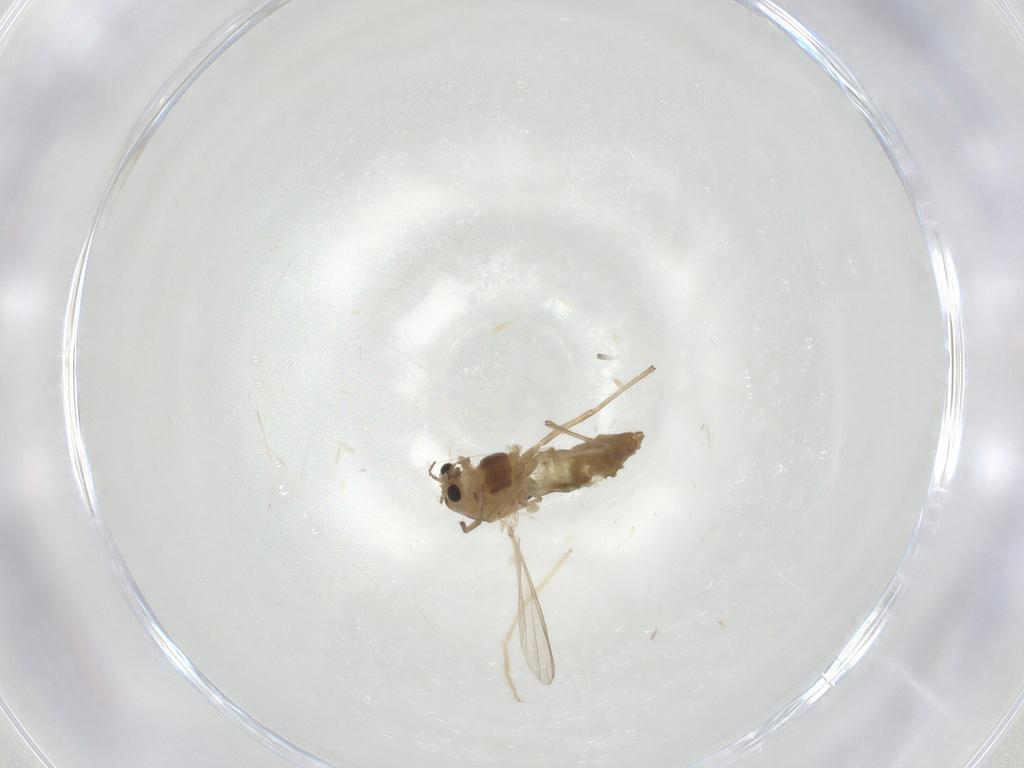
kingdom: Animalia
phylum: Arthropoda
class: Insecta
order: Diptera
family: Chironomidae
